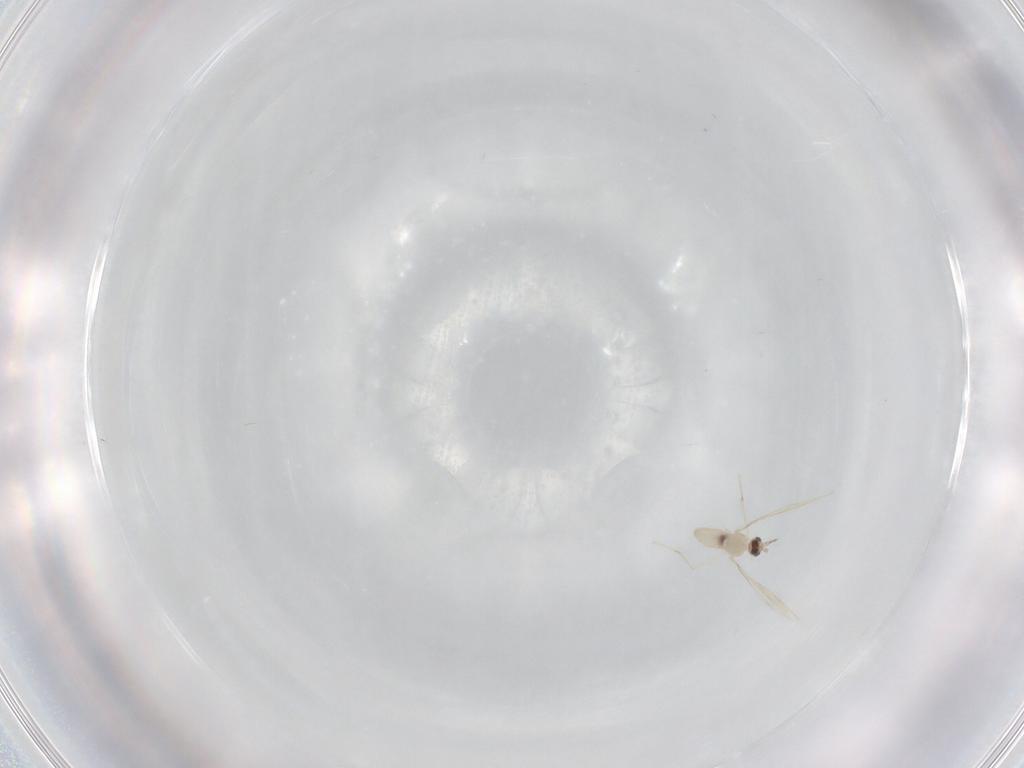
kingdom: Animalia
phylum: Arthropoda
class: Insecta
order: Diptera
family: Cecidomyiidae
